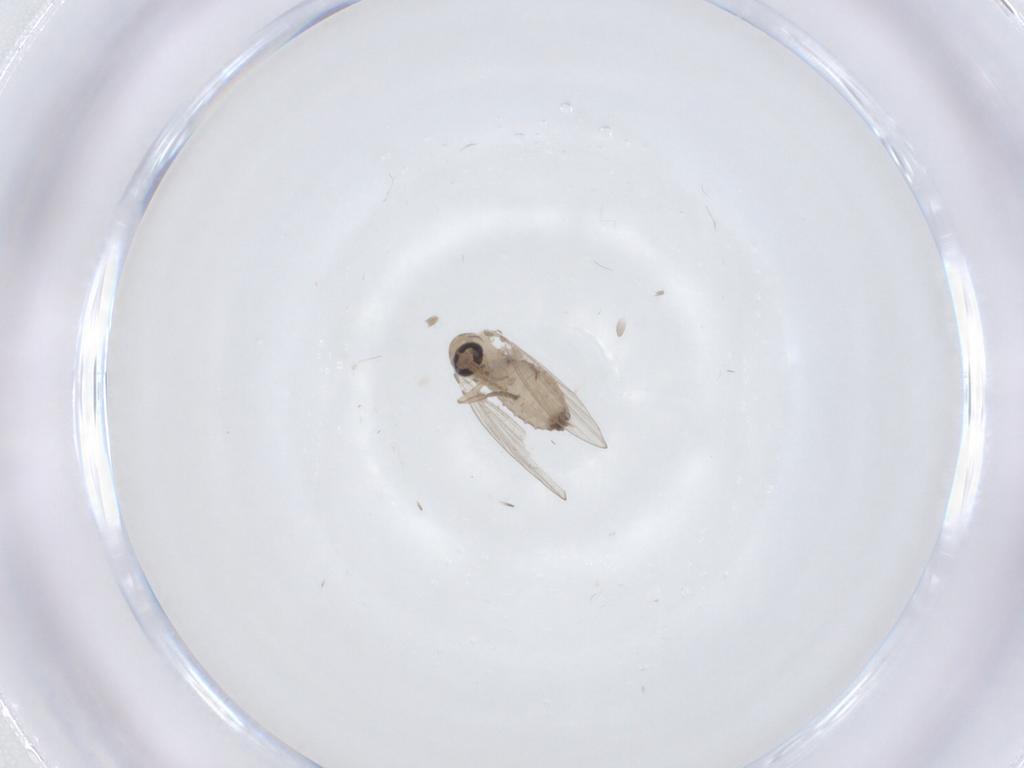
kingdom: Animalia
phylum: Arthropoda
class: Insecta
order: Diptera
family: Psychodidae
